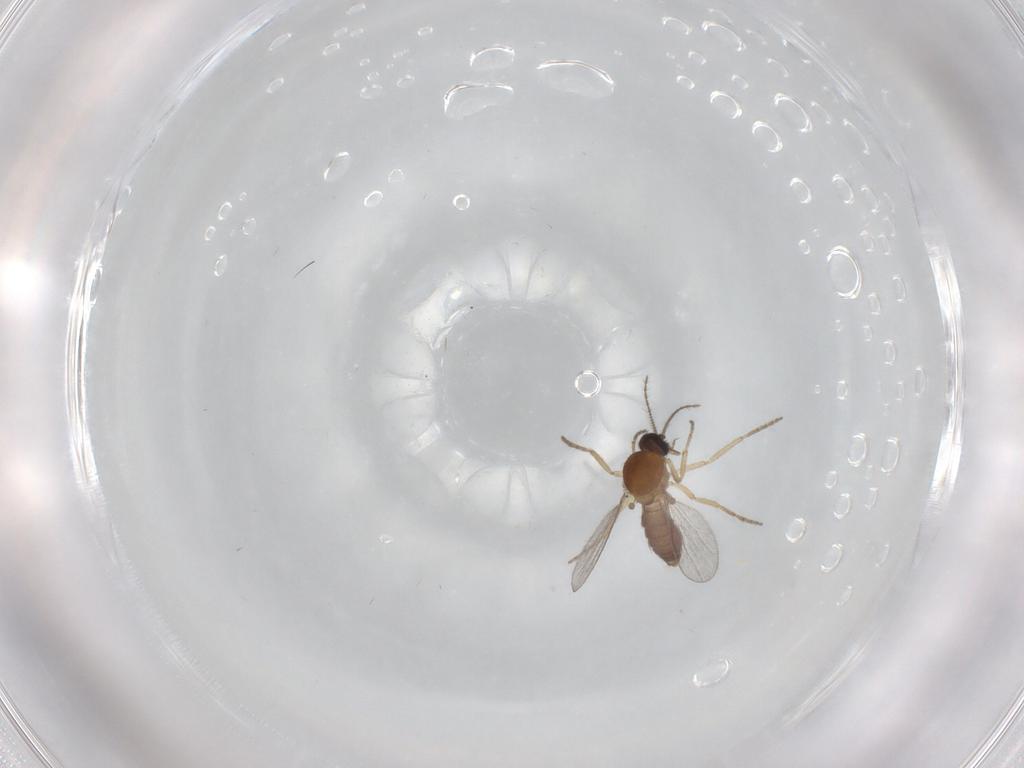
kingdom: Animalia
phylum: Arthropoda
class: Insecta
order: Diptera
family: Ceratopogonidae
